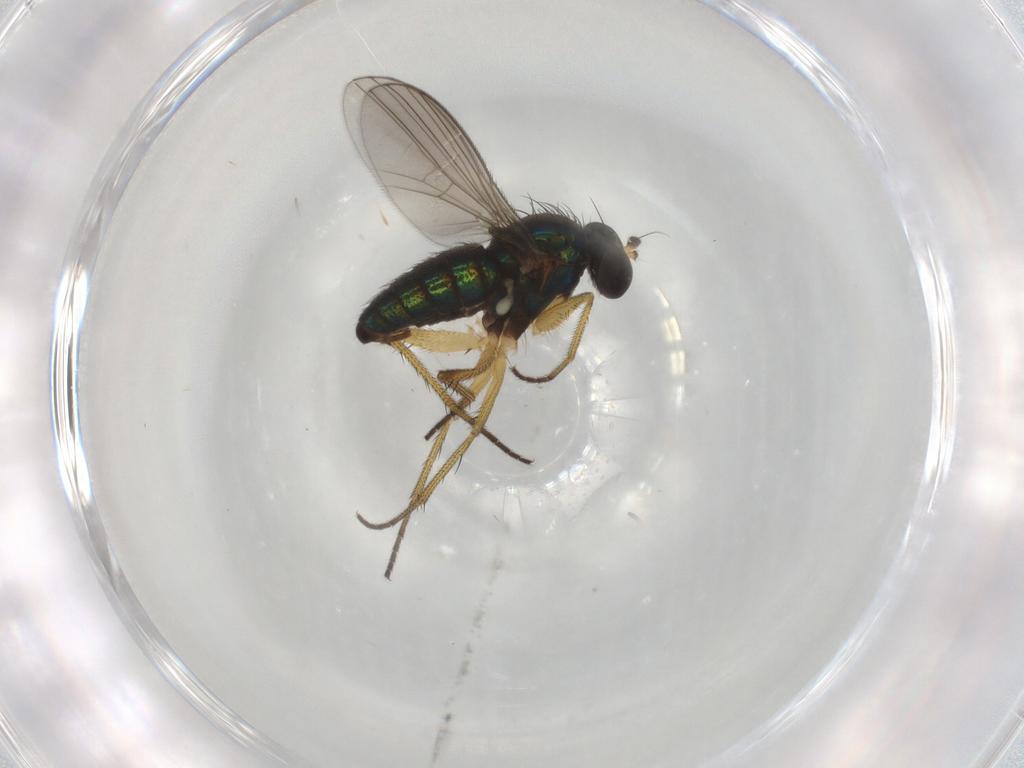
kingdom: Animalia
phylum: Arthropoda
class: Insecta
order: Diptera
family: Dolichopodidae
